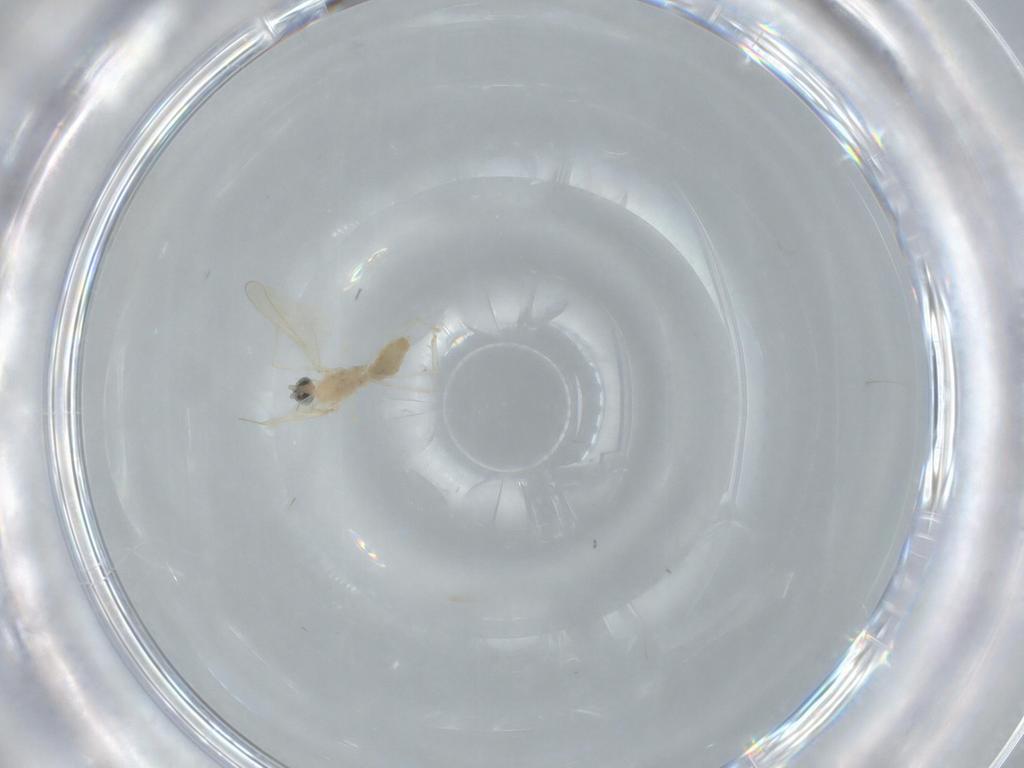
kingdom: Animalia
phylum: Arthropoda
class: Insecta
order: Diptera
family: Cecidomyiidae
